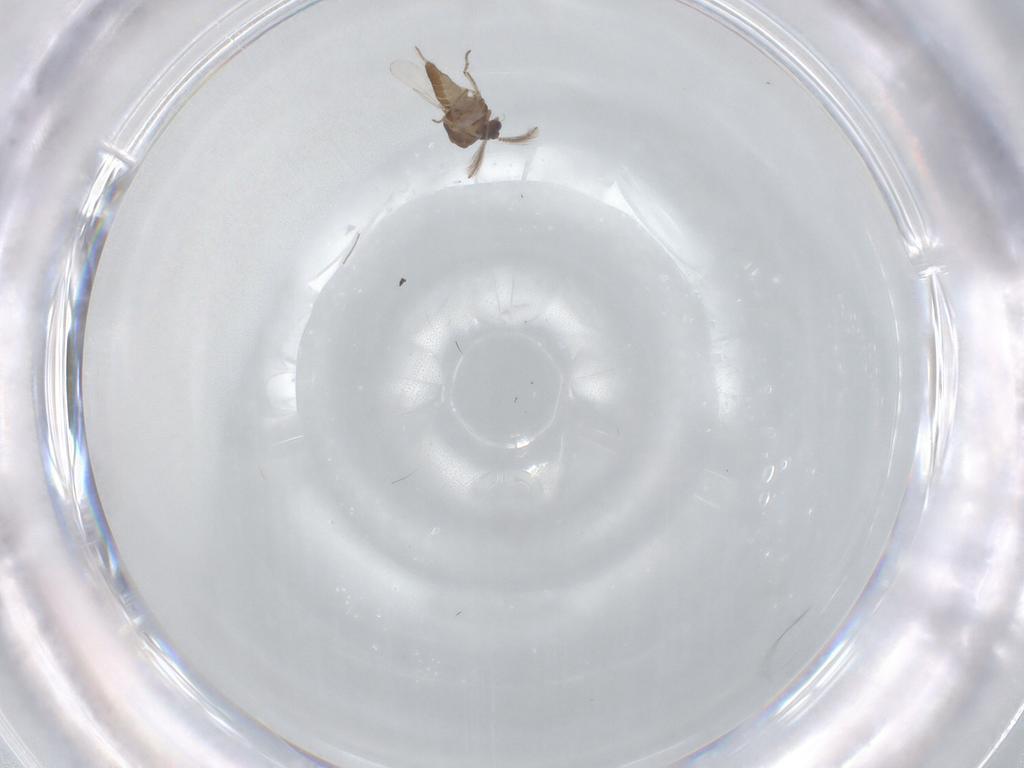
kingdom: Animalia
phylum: Arthropoda
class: Insecta
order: Diptera
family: Ceratopogonidae
